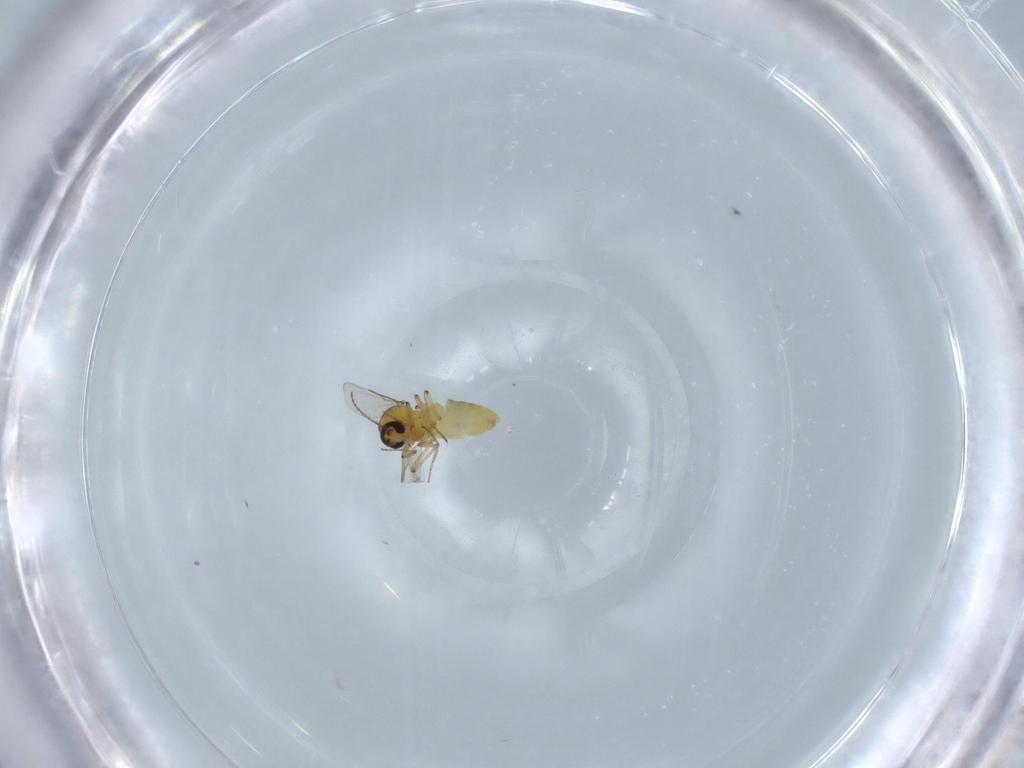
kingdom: Animalia
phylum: Arthropoda
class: Insecta
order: Diptera
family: Ceratopogonidae
